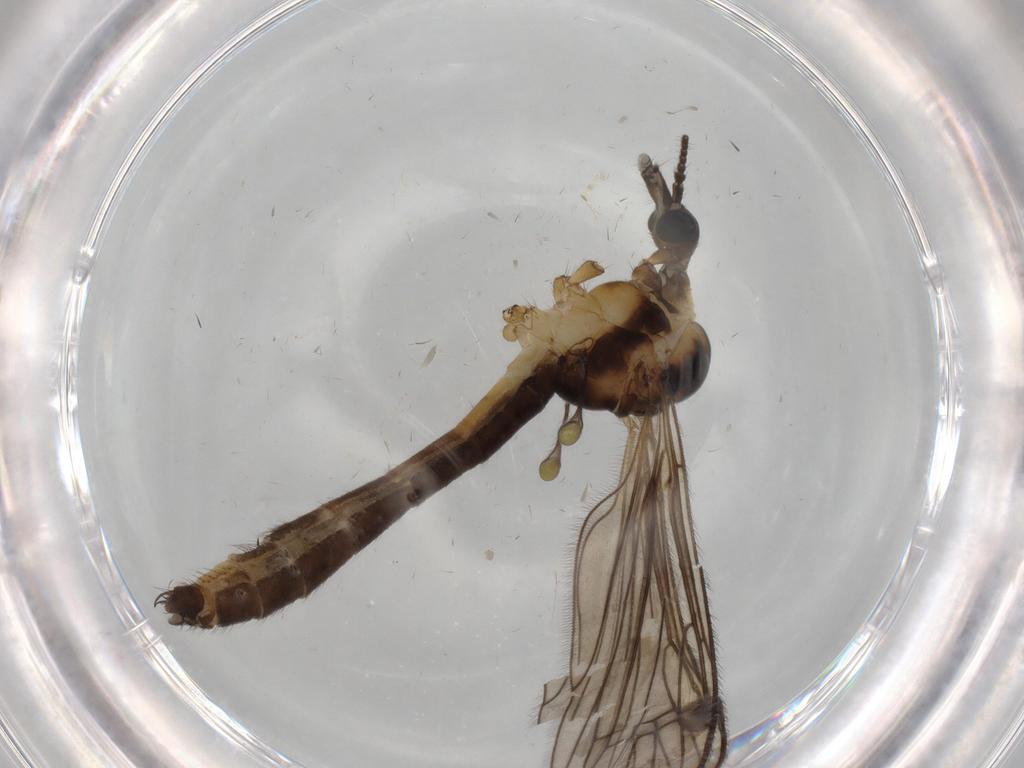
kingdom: Animalia
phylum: Arthropoda
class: Insecta
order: Diptera
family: Limoniidae
